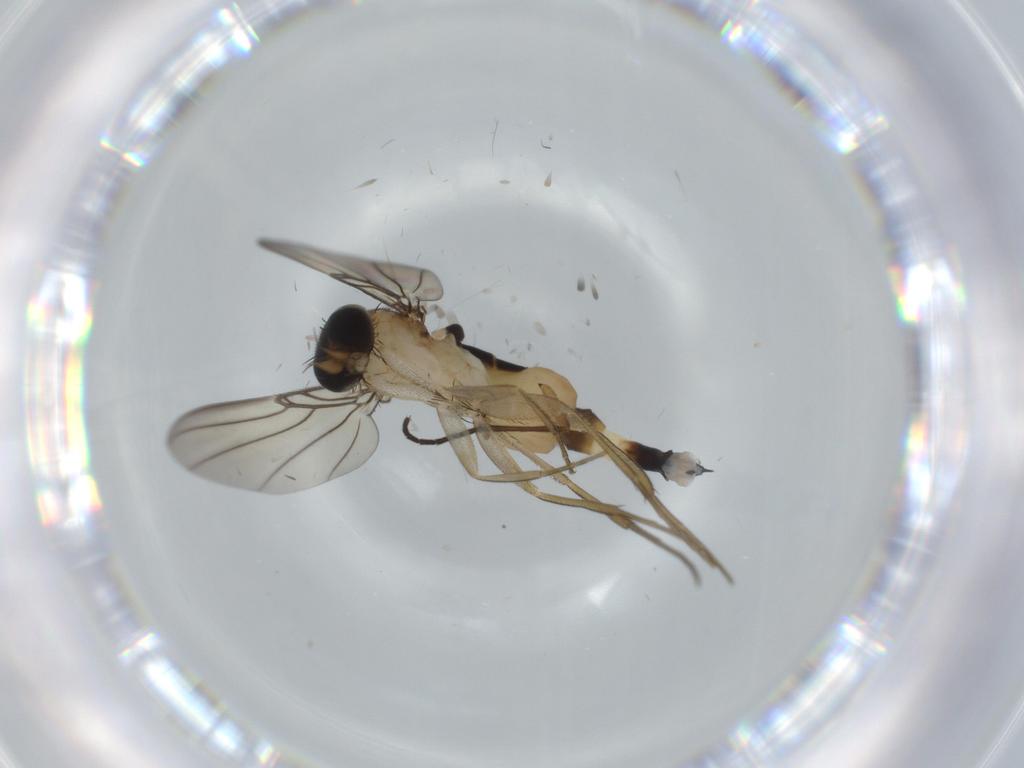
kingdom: Animalia
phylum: Arthropoda
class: Insecta
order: Diptera
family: Phoridae
